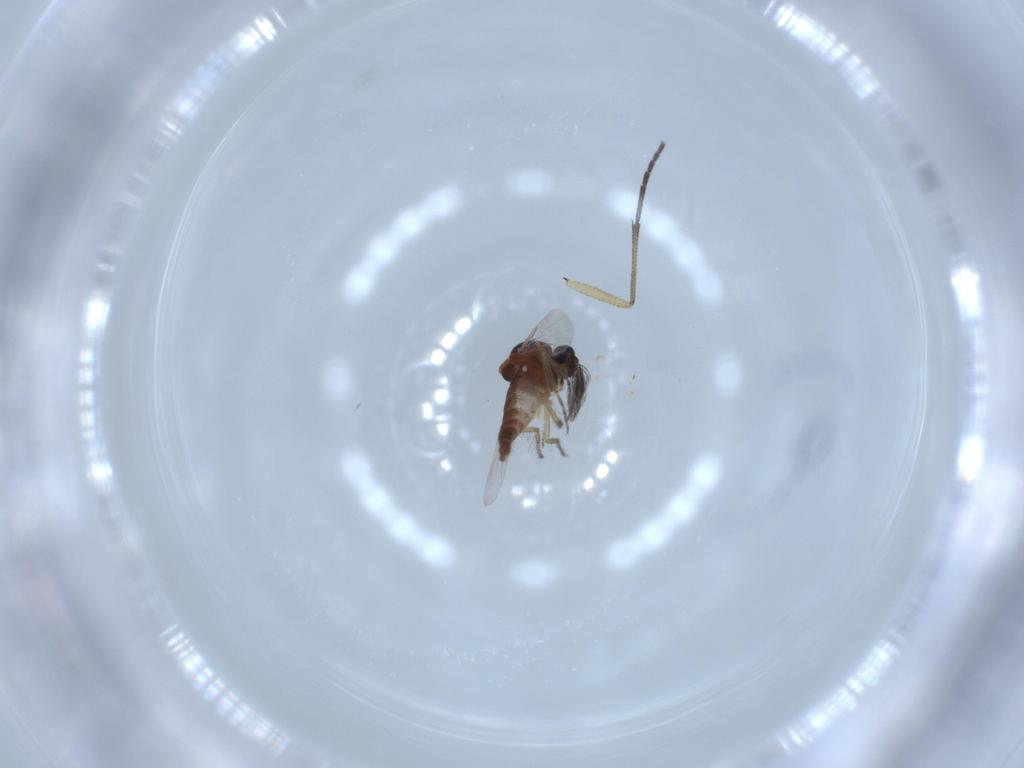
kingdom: Animalia
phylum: Arthropoda
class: Insecta
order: Diptera
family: Sciaridae
